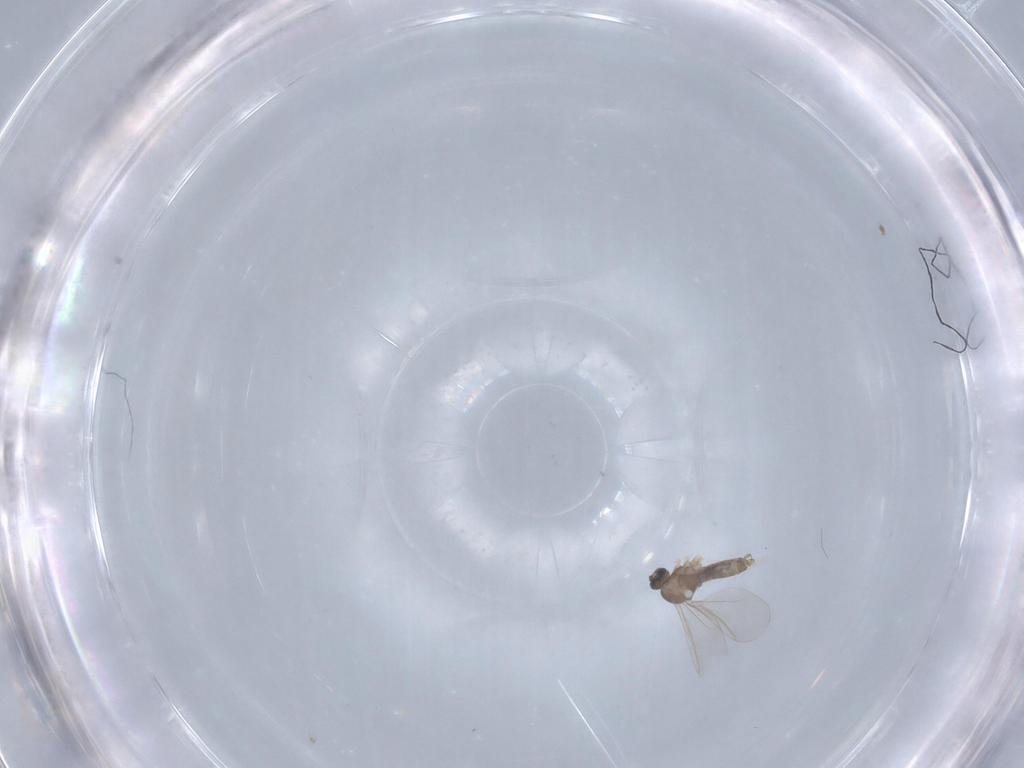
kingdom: Animalia
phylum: Arthropoda
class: Insecta
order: Diptera
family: Cecidomyiidae
